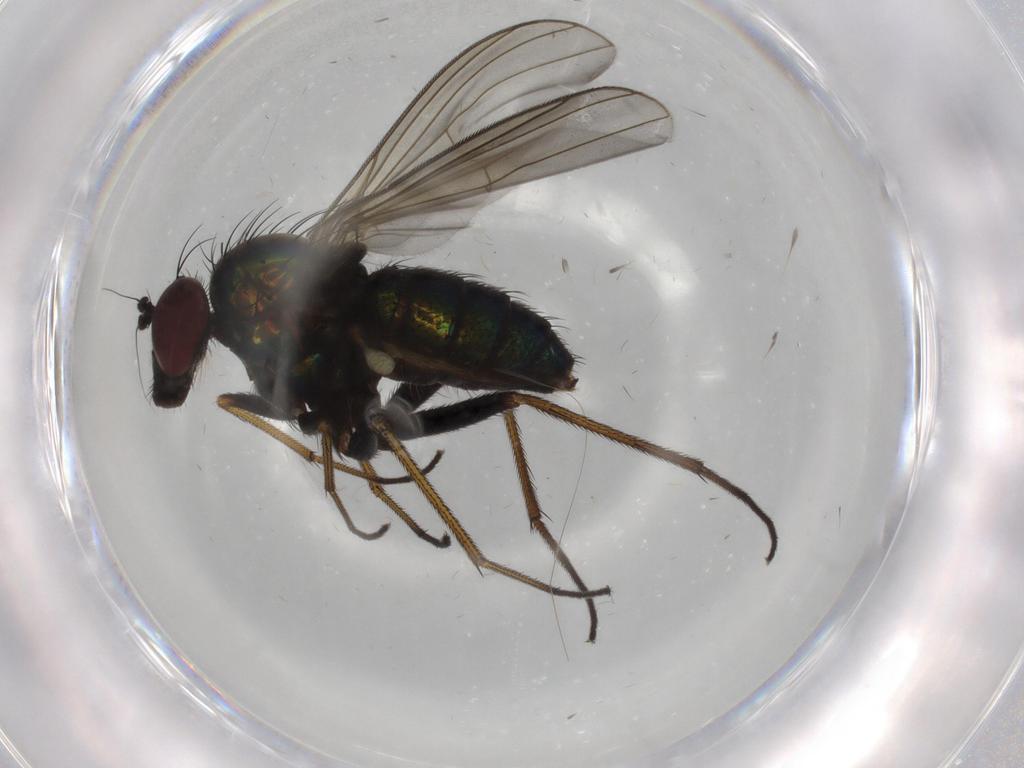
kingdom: Animalia
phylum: Arthropoda
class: Insecta
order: Diptera
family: Dolichopodidae
